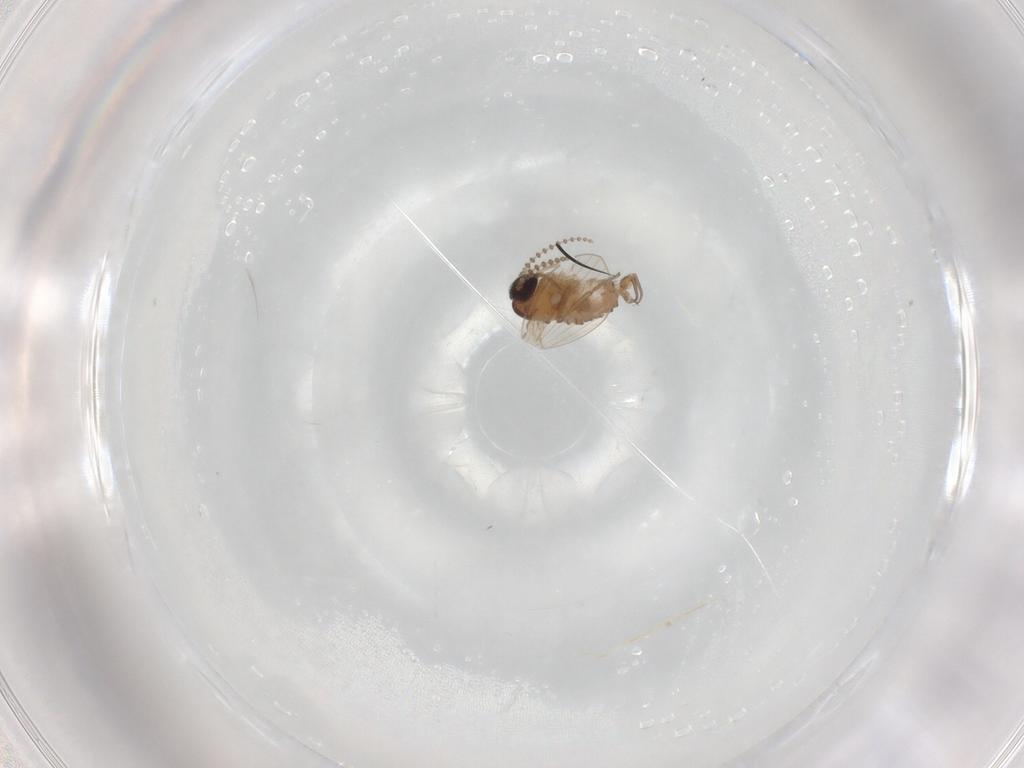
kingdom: Animalia
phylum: Arthropoda
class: Insecta
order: Diptera
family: Psychodidae
